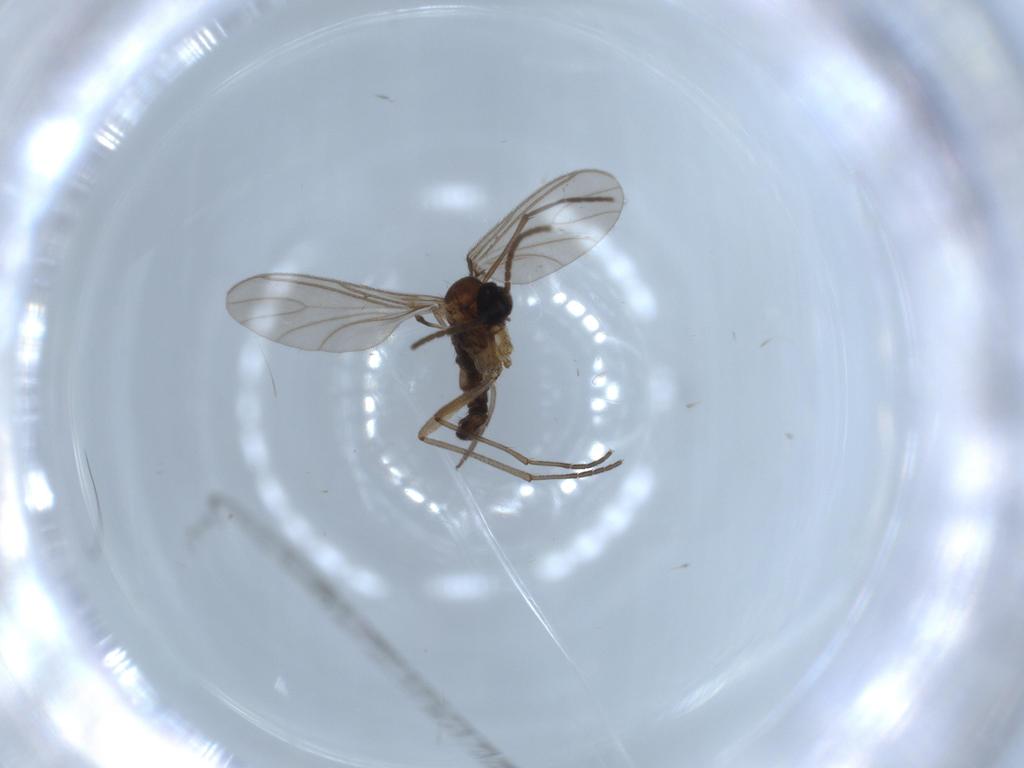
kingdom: Animalia
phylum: Arthropoda
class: Insecta
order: Diptera
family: Sciaridae
